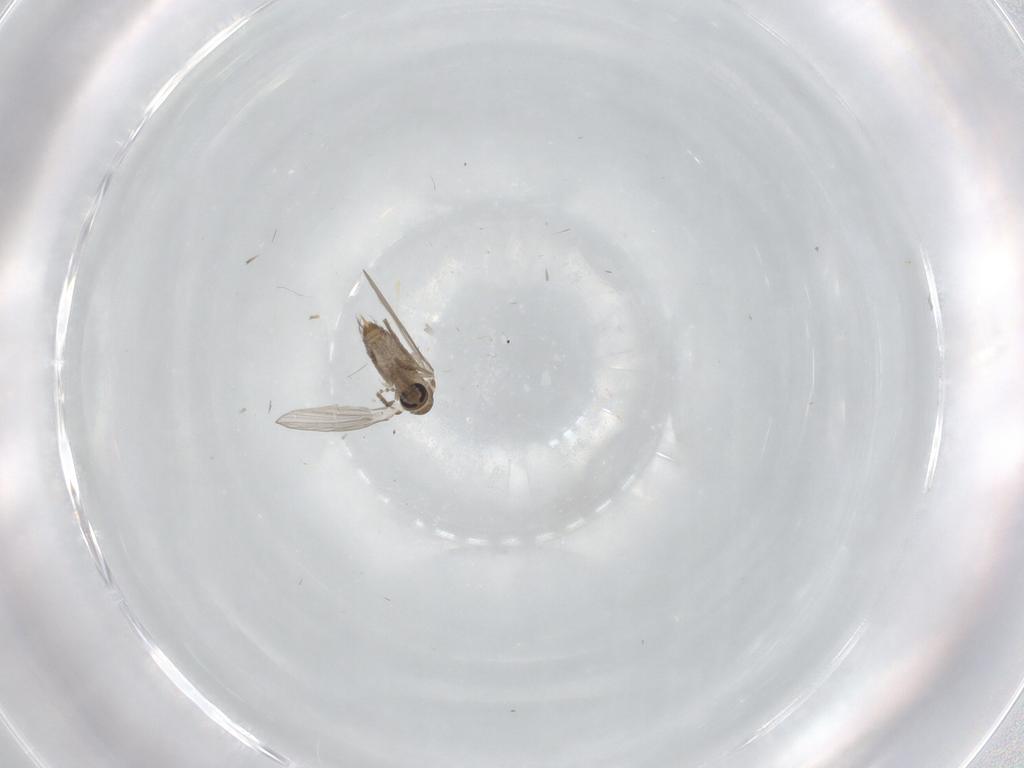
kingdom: Animalia
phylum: Arthropoda
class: Insecta
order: Diptera
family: Psychodidae
